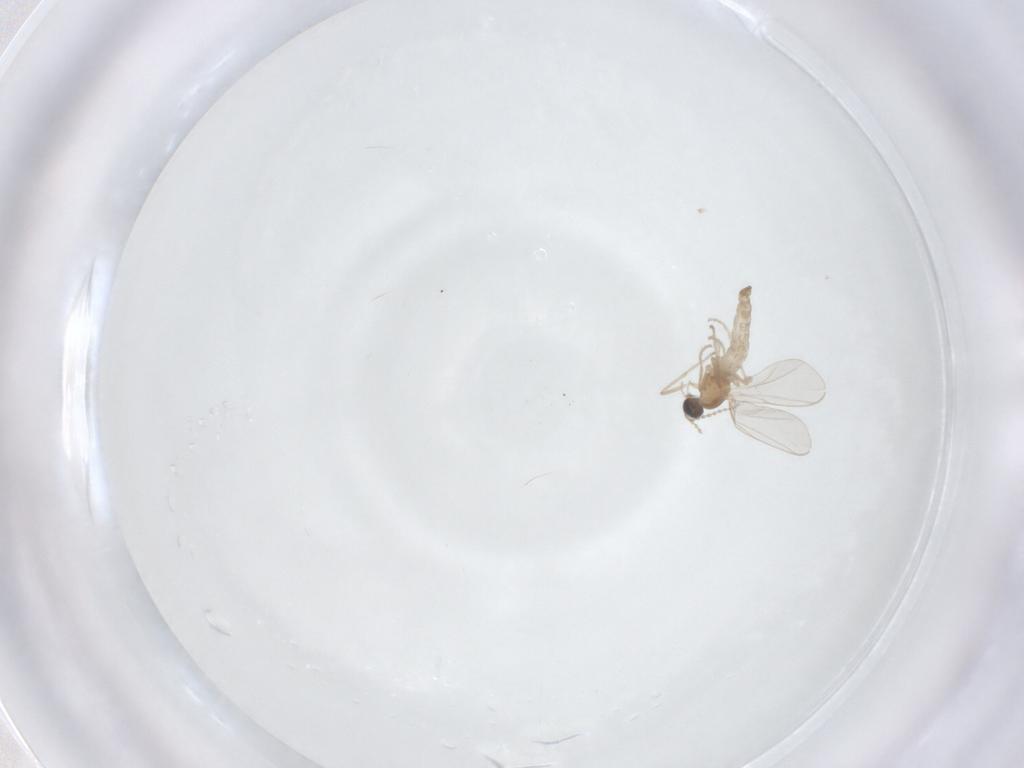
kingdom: Animalia
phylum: Arthropoda
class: Insecta
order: Diptera
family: Cecidomyiidae
